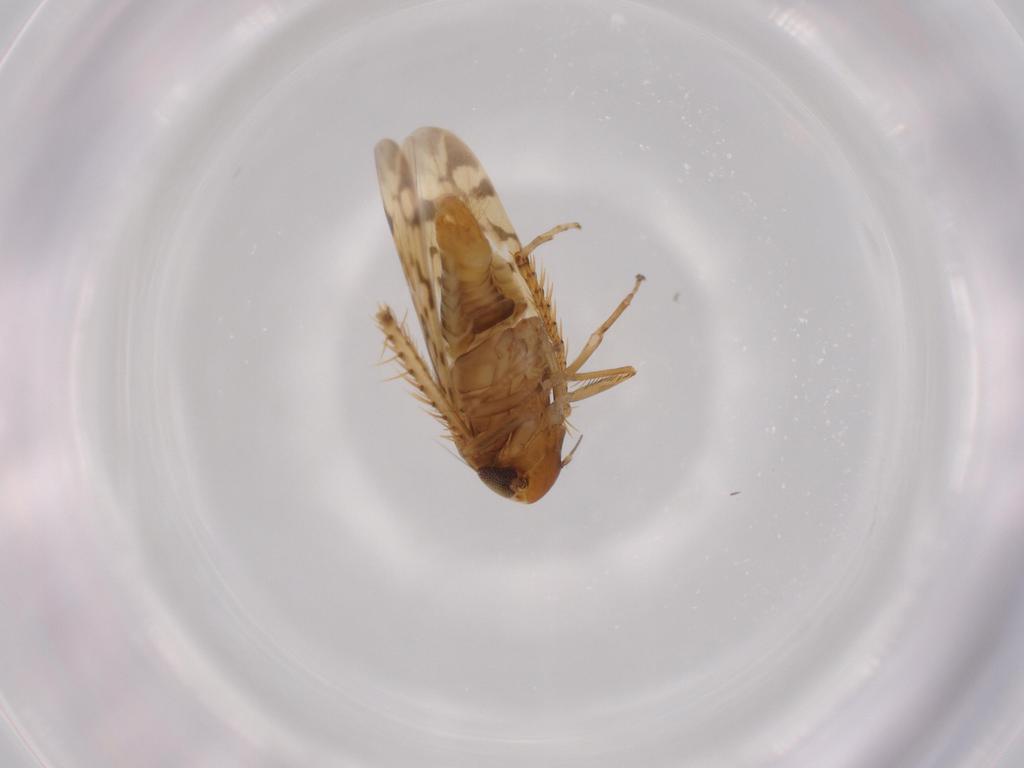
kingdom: Animalia
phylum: Arthropoda
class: Insecta
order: Hemiptera
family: Cicadellidae
